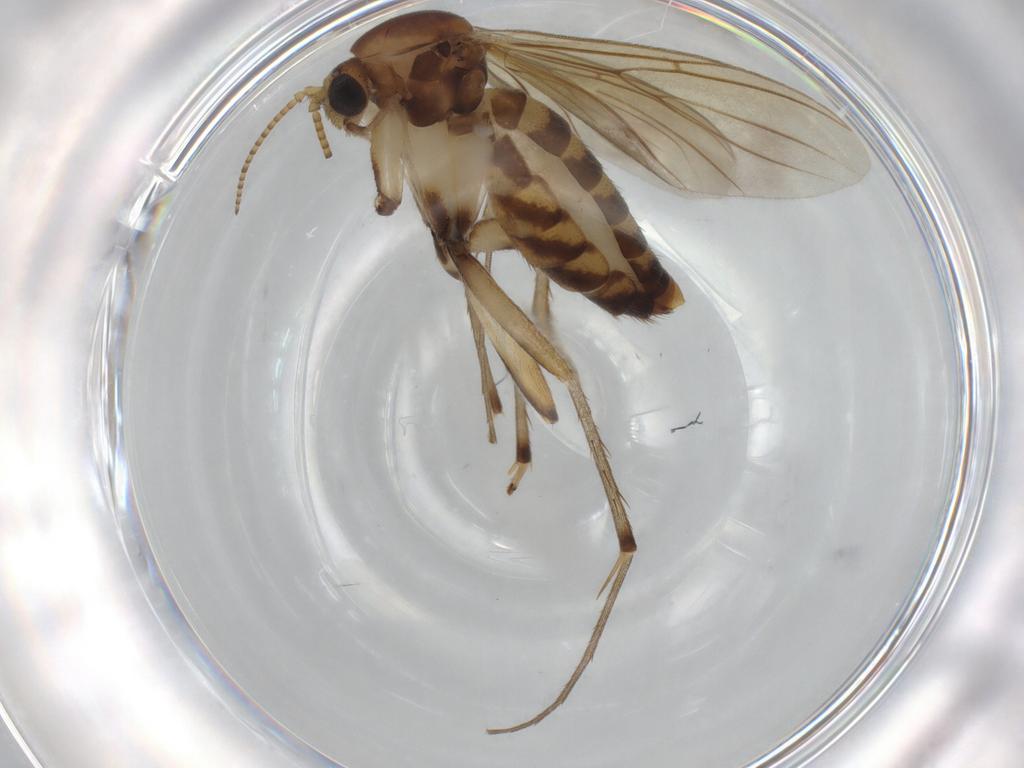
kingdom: Animalia
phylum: Arthropoda
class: Insecta
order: Diptera
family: Mycetophilidae
